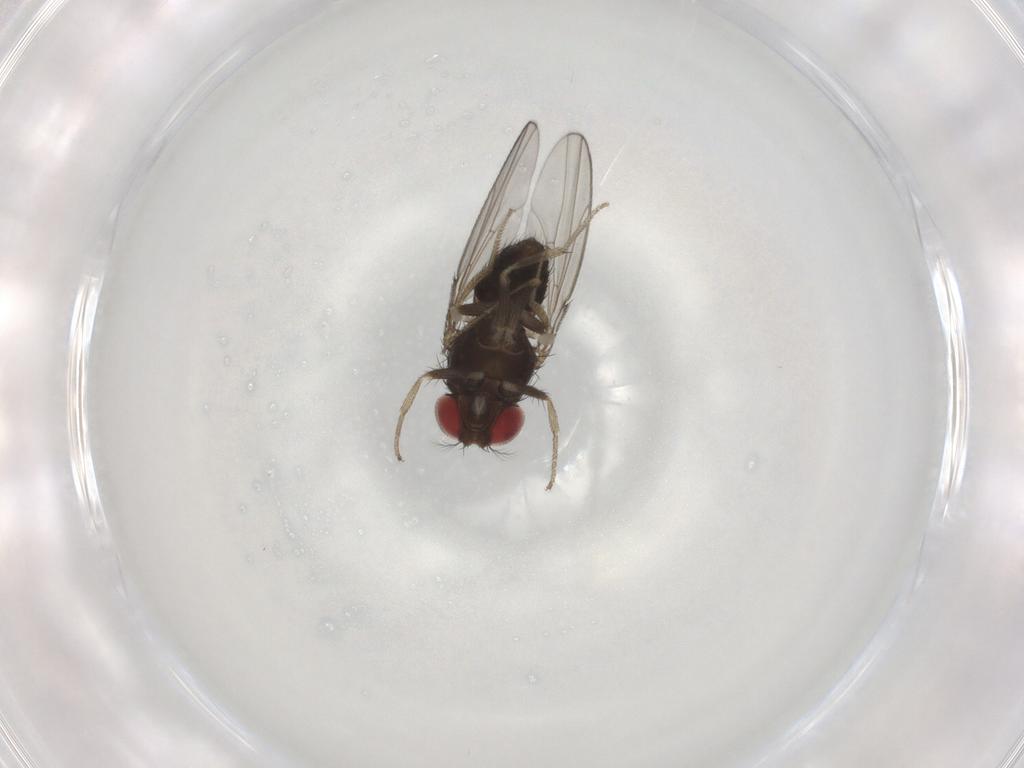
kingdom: Animalia
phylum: Arthropoda
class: Insecta
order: Diptera
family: Drosophilidae
